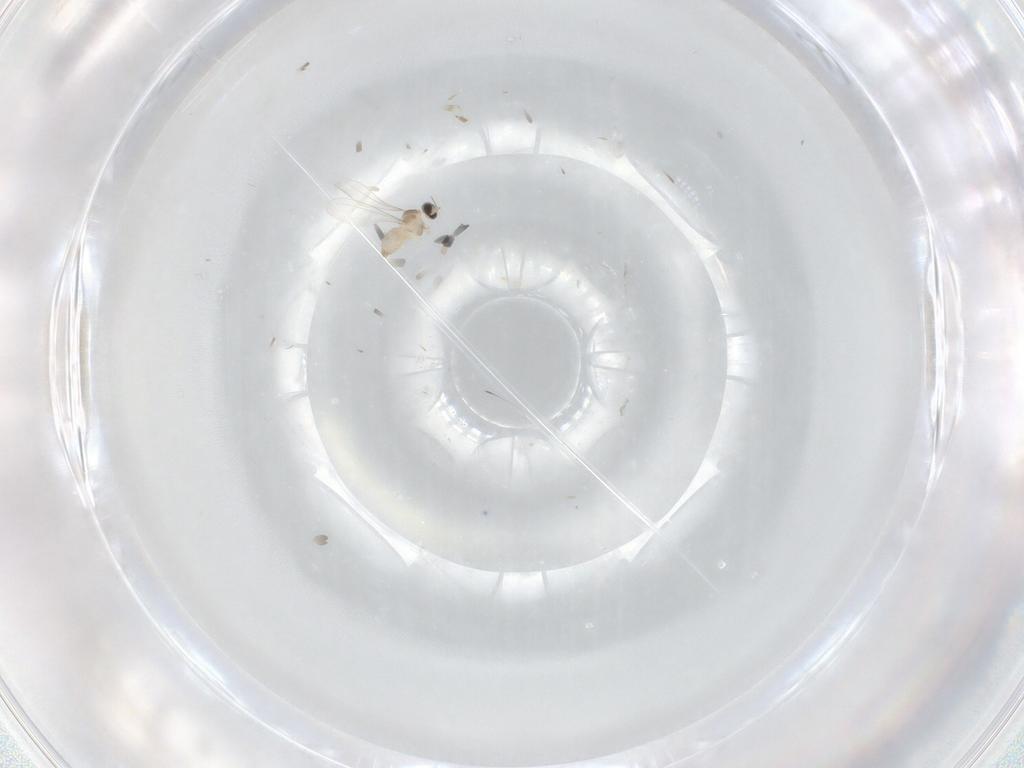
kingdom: Animalia
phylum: Arthropoda
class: Insecta
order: Diptera
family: Cecidomyiidae
